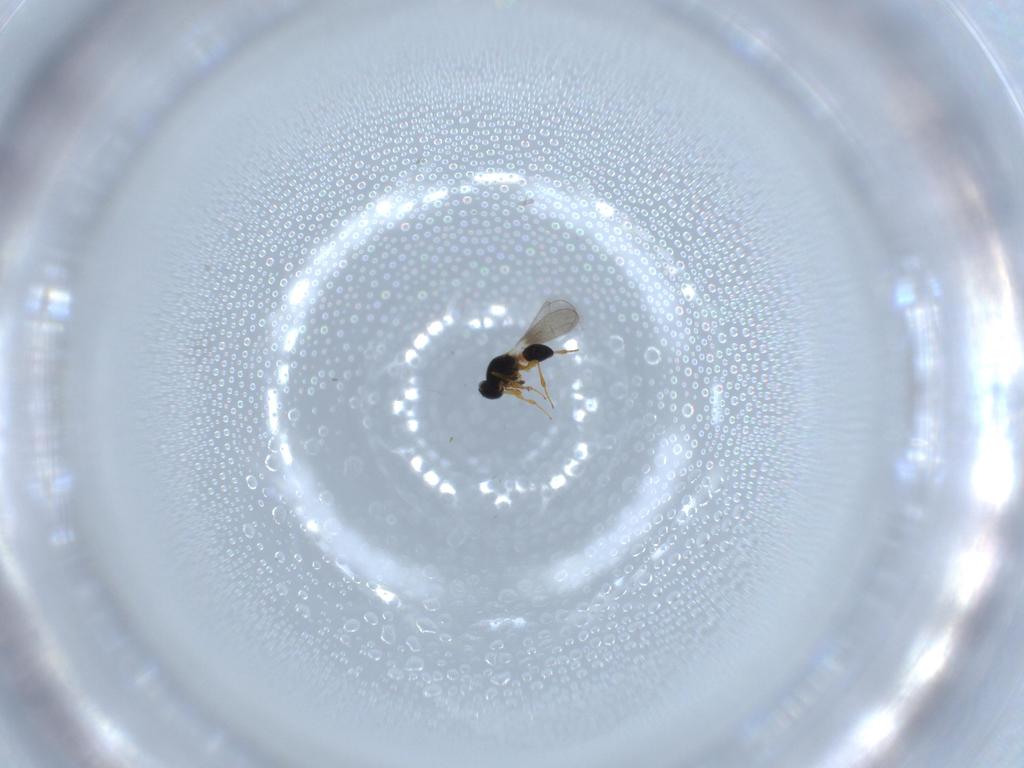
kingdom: Animalia
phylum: Arthropoda
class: Insecta
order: Hymenoptera
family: Platygastridae
